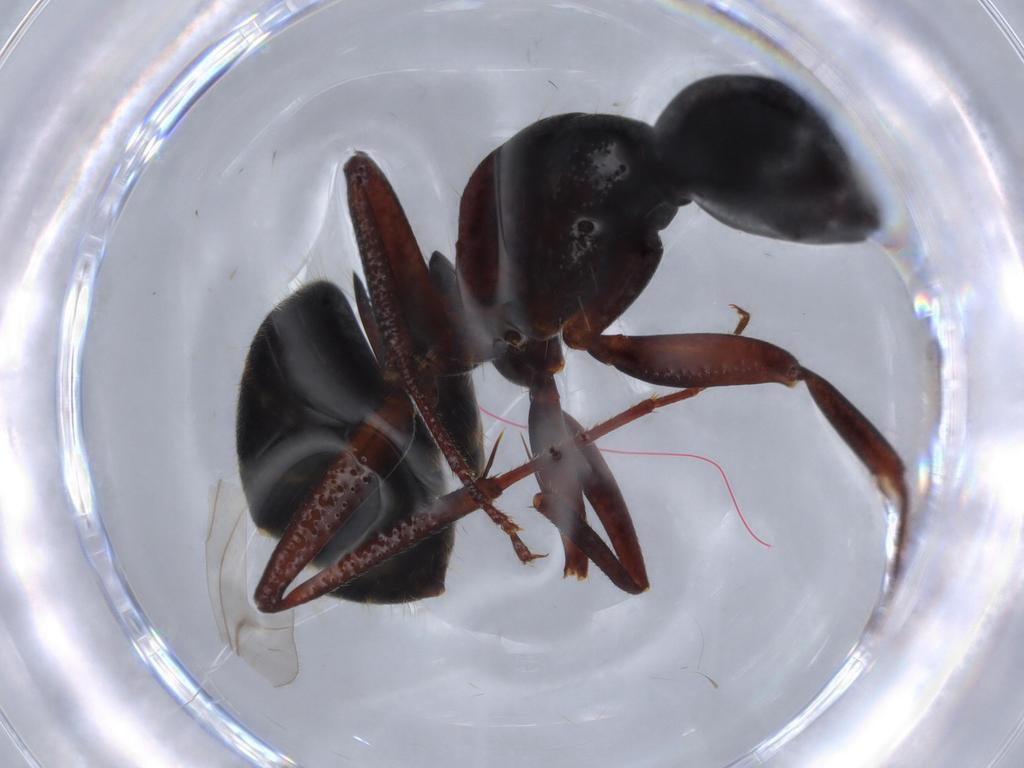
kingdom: Animalia
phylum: Arthropoda
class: Insecta
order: Hymenoptera
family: Formicidae
